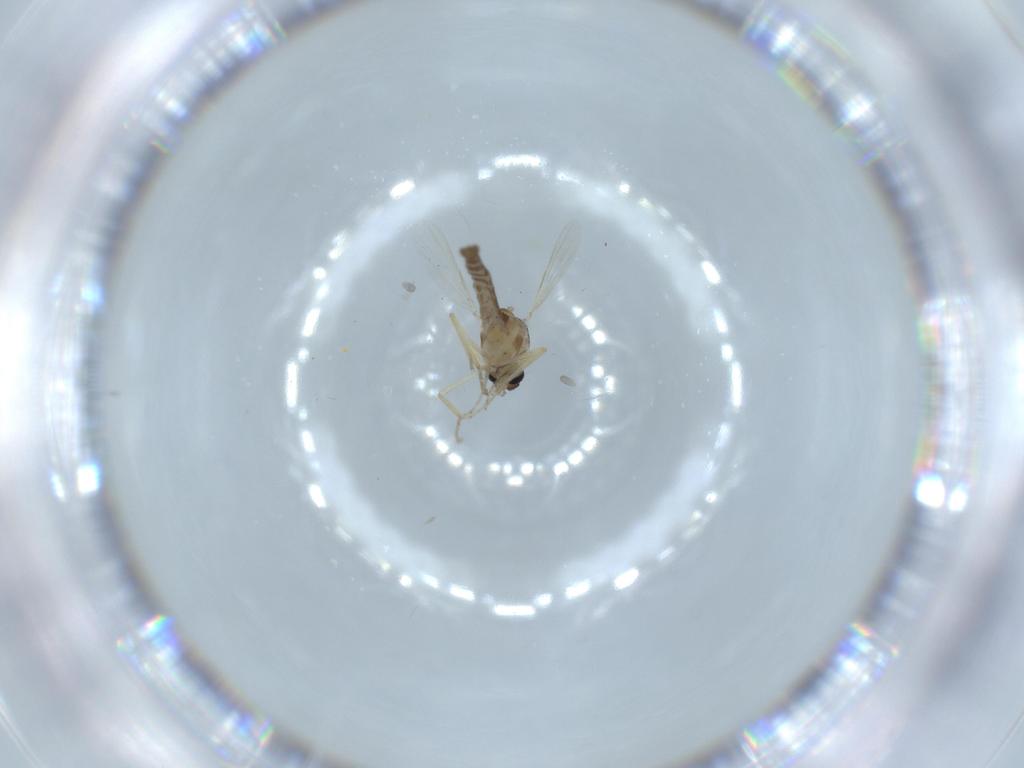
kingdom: Animalia
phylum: Arthropoda
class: Insecta
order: Diptera
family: Ceratopogonidae
